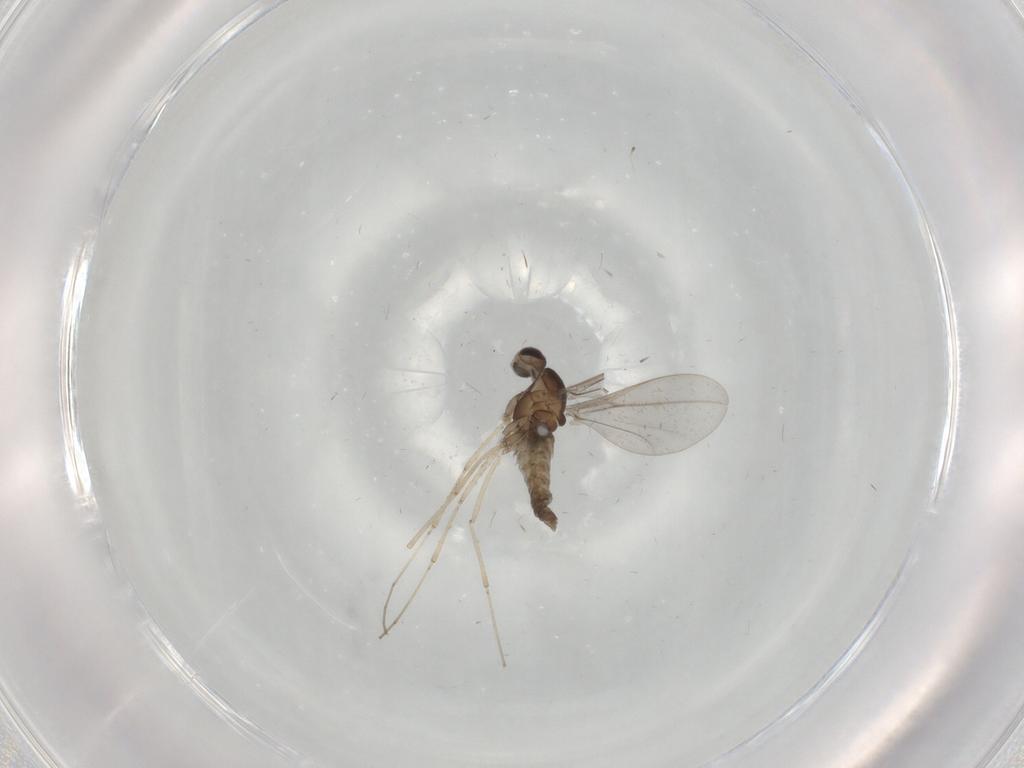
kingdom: Animalia
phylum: Arthropoda
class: Insecta
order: Diptera
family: Cecidomyiidae
